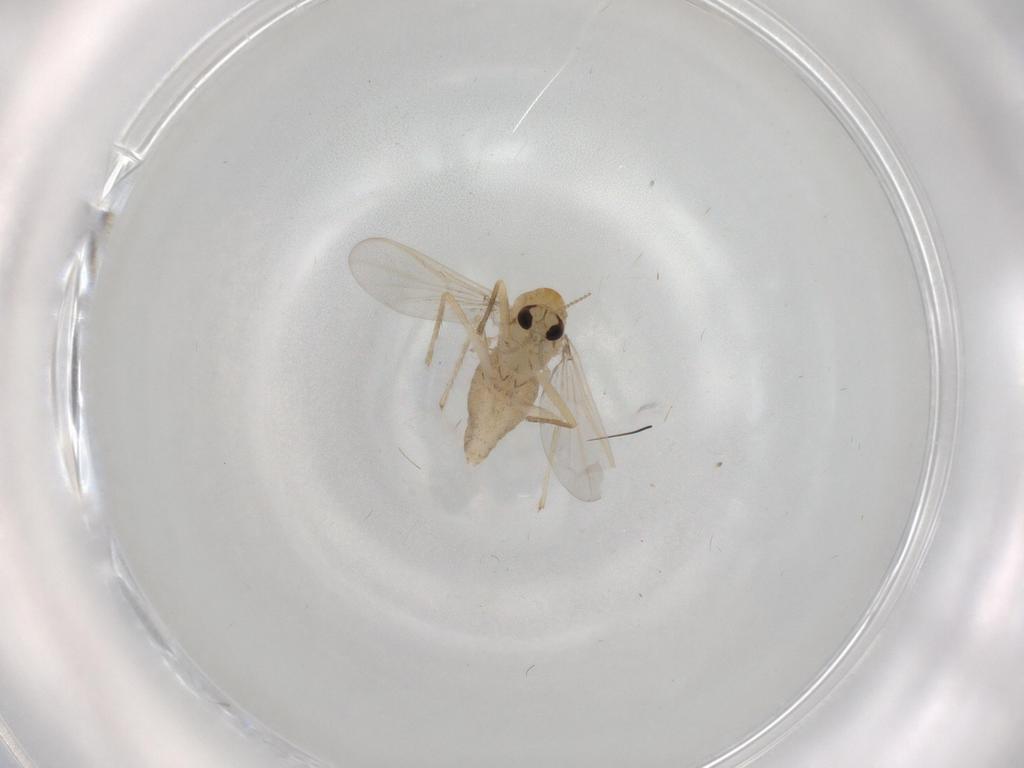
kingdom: Animalia
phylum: Arthropoda
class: Insecta
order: Diptera
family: Chironomidae
